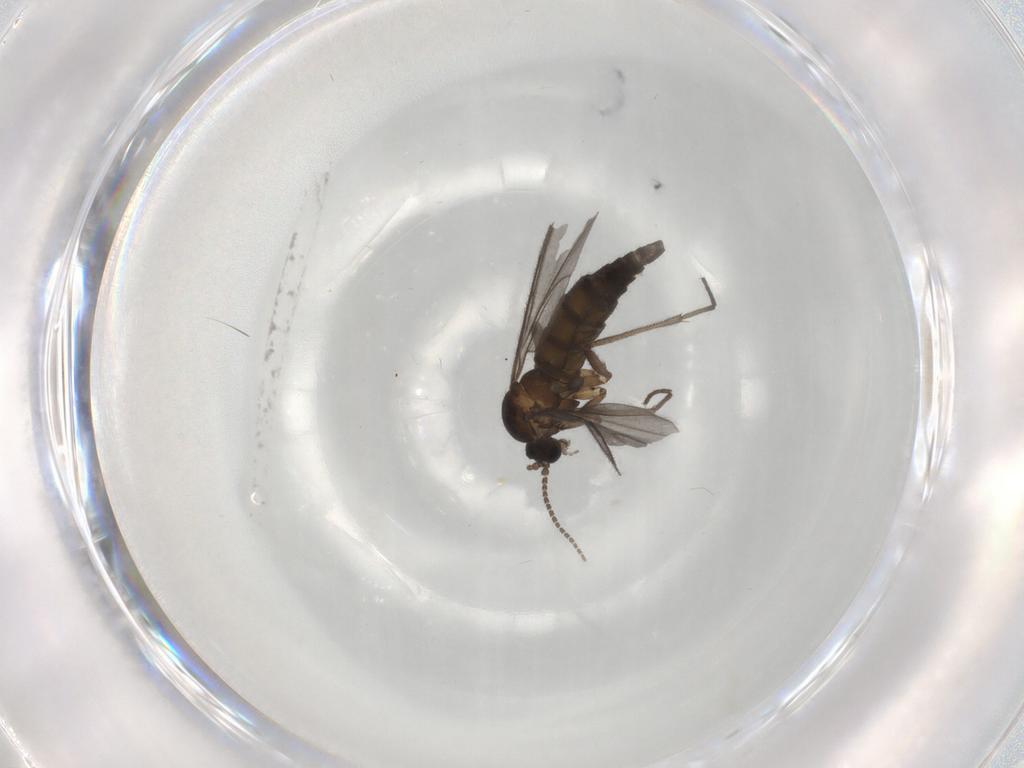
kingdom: Animalia
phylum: Arthropoda
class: Insecta
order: Diptera
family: Sciaridae
